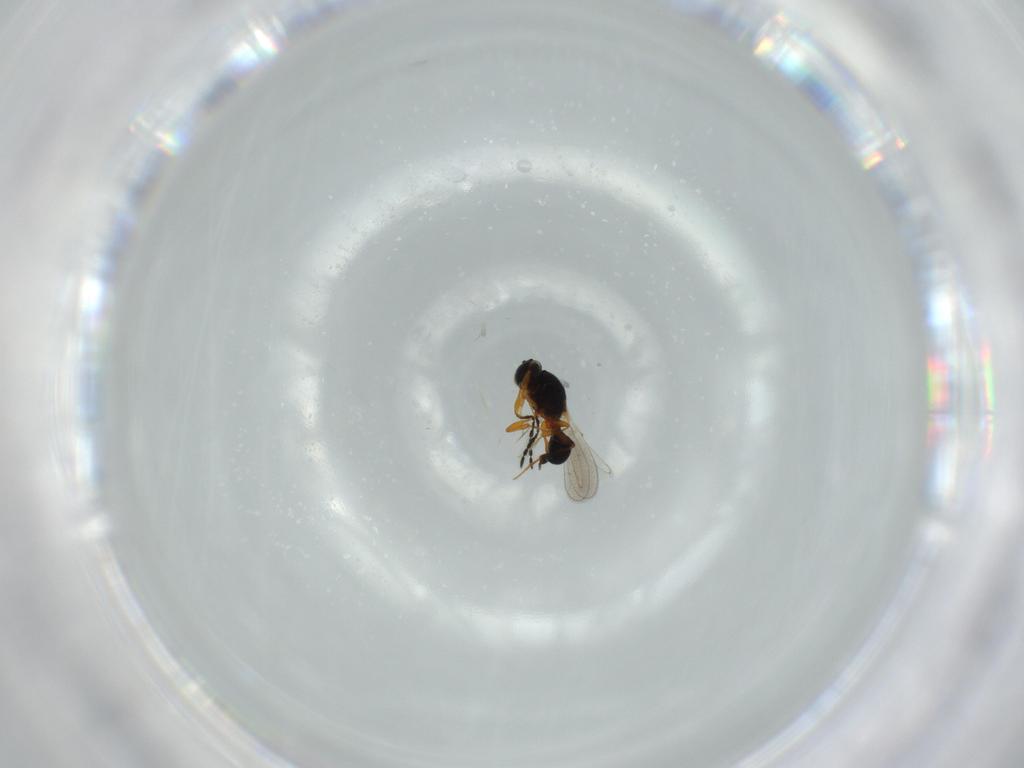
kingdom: Animalia
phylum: Arthropoda
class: Insecta
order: Hymenoptera
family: Platygastridae
